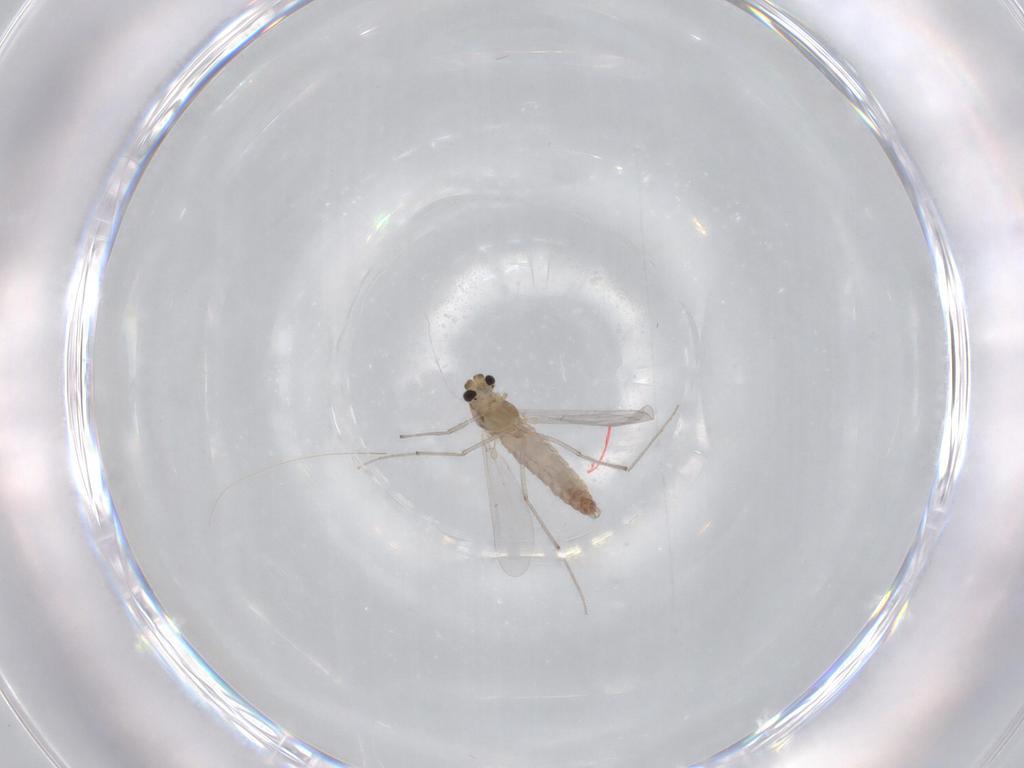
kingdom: Animalia
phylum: Arthropoda
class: Insecta
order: Diptera
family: Chironomidae
